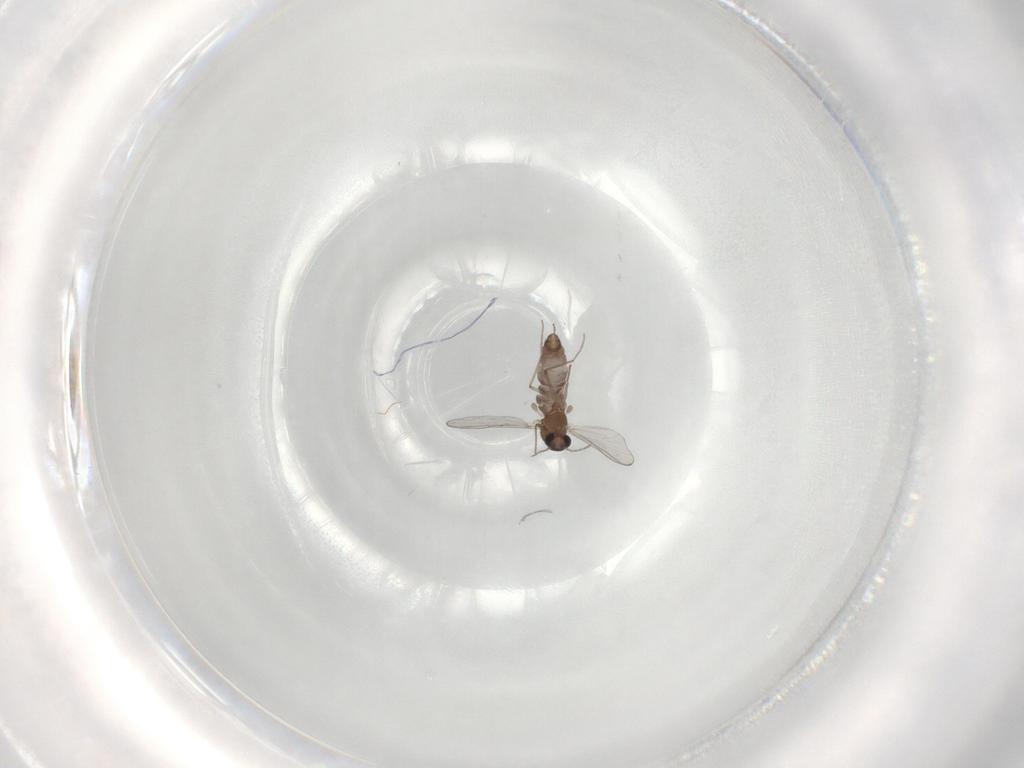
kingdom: Animalia
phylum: Arthropoda
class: Insecta
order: Diptera
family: Chironomidae
